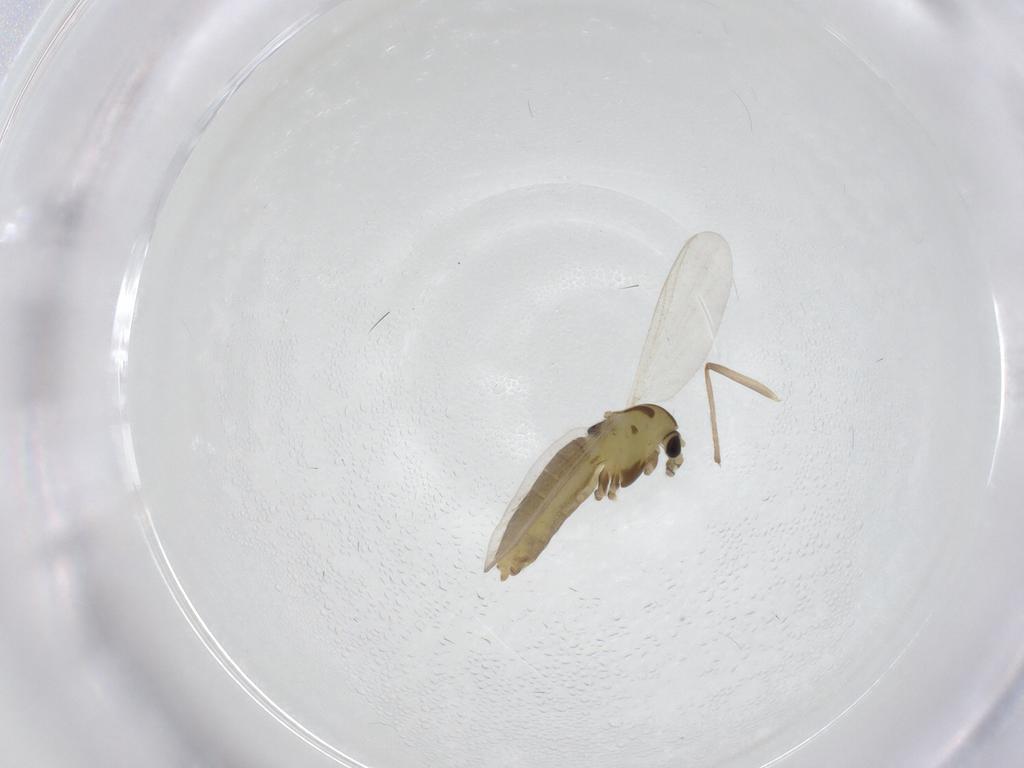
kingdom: Animalia
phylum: Arthropoda
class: Insecta
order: Diptera
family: Chironomidae
